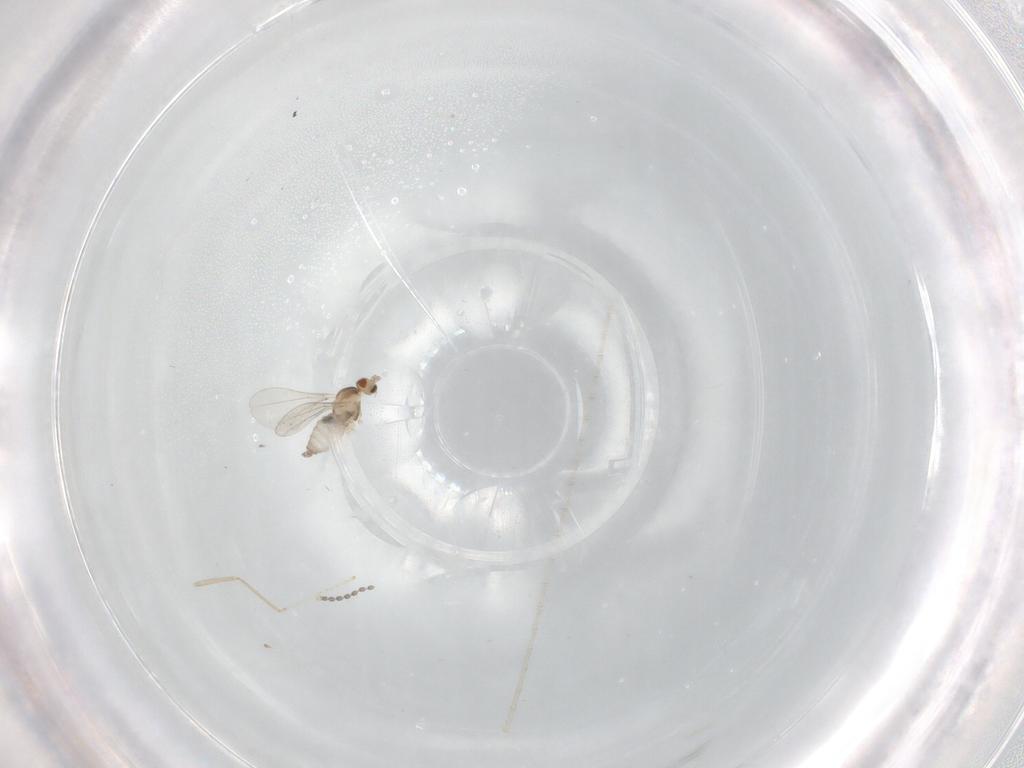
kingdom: Animalia
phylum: Arthropoda
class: Insecta
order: Diptera
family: Cecidomyiidae
